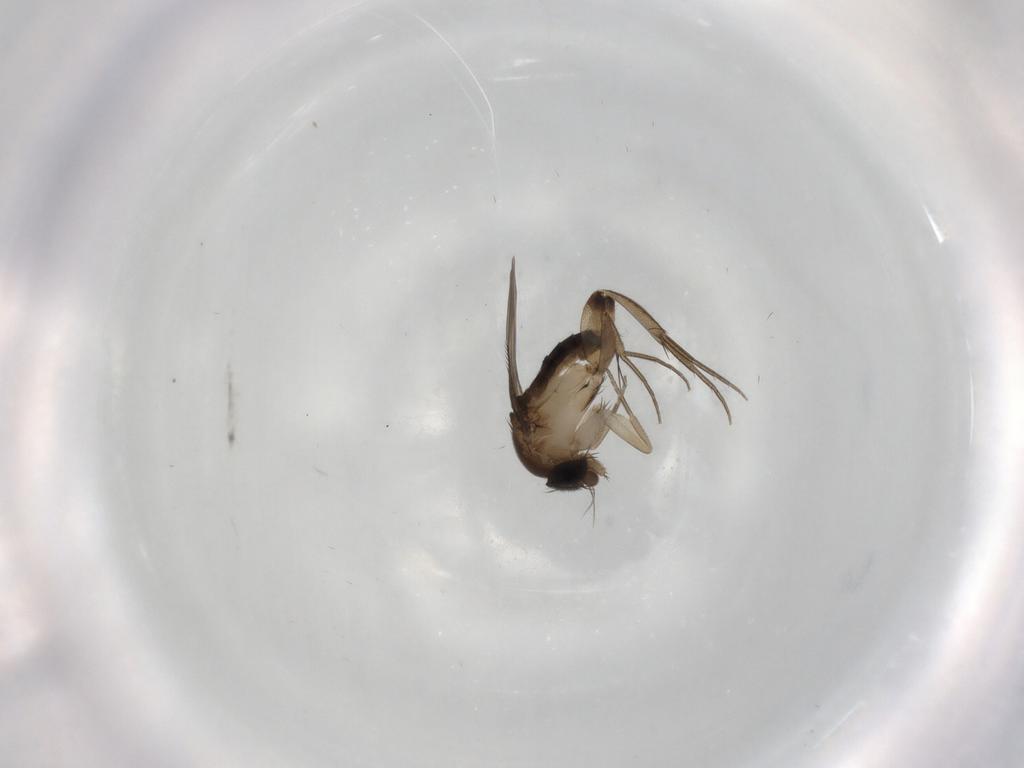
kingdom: Animalia
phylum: Arthropoda
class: Insecta
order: Diptera
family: Phoridae
